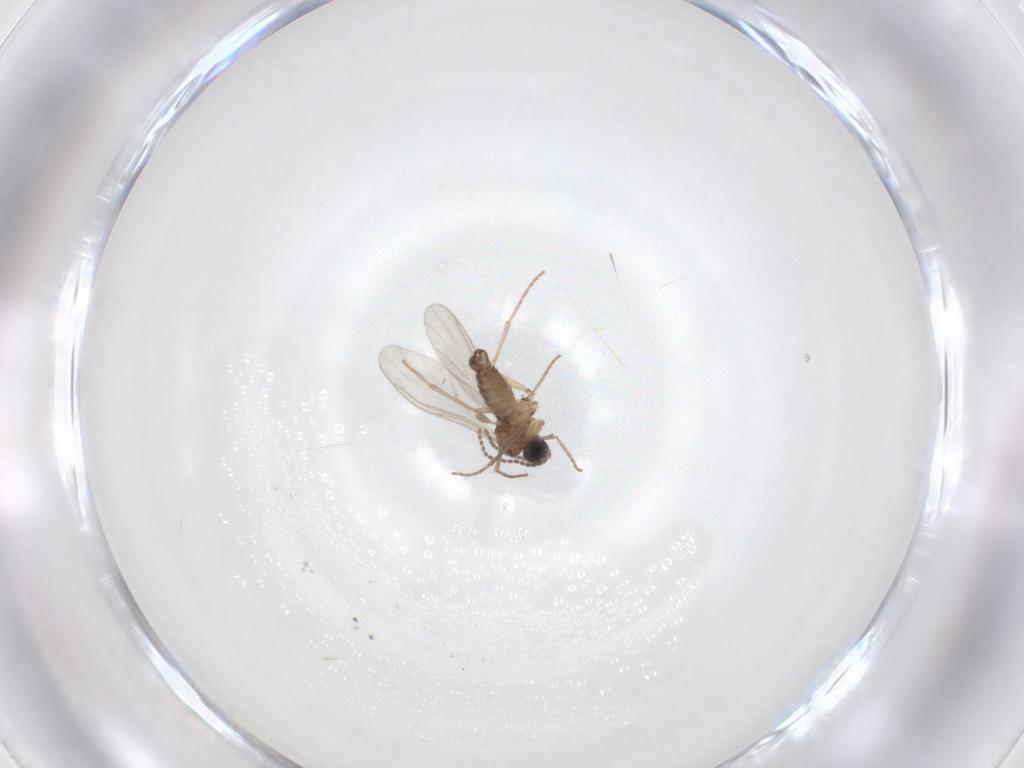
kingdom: Animalia
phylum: Arthropoda
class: Insecta
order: Diptera
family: Sciaridae
